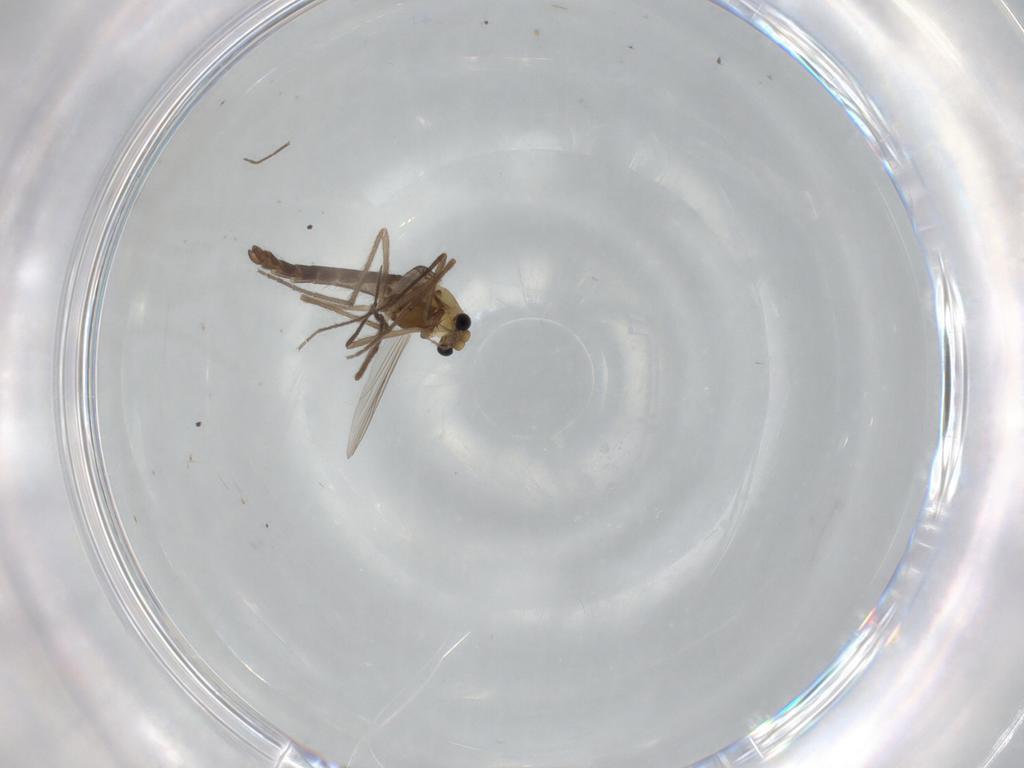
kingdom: Animalia
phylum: Arthropoda
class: Insecta
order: Diptera
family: Chironomidae
